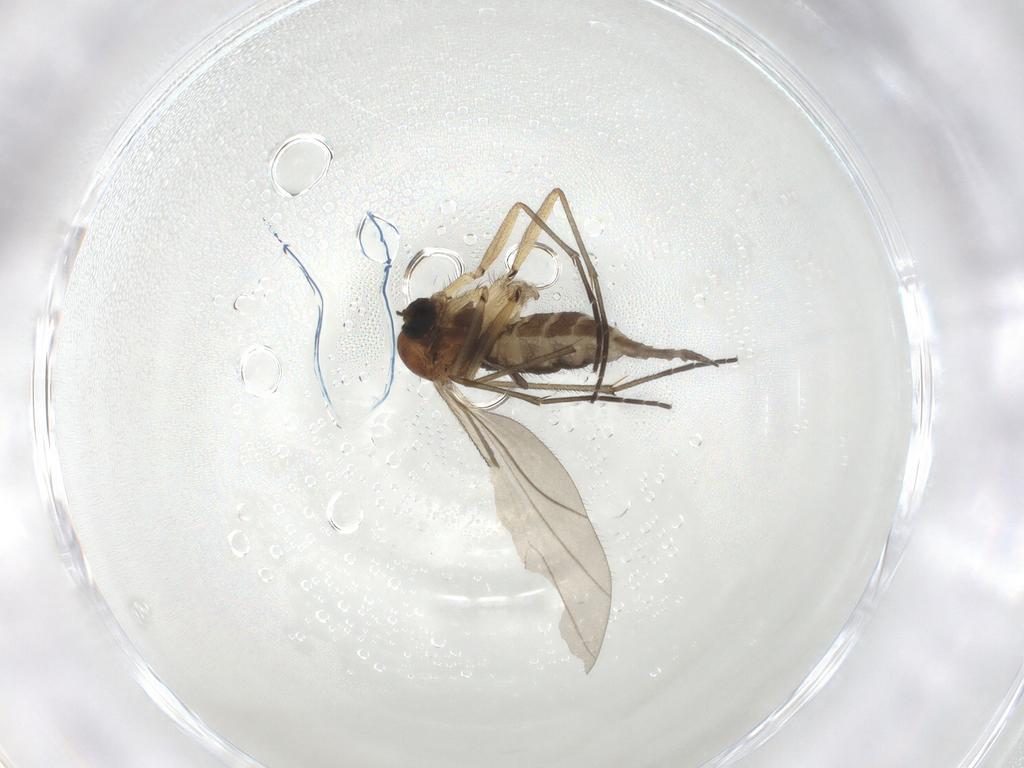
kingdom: Animalia
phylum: Arthropoda
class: Insecta
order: Diptera
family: Sciaridae
